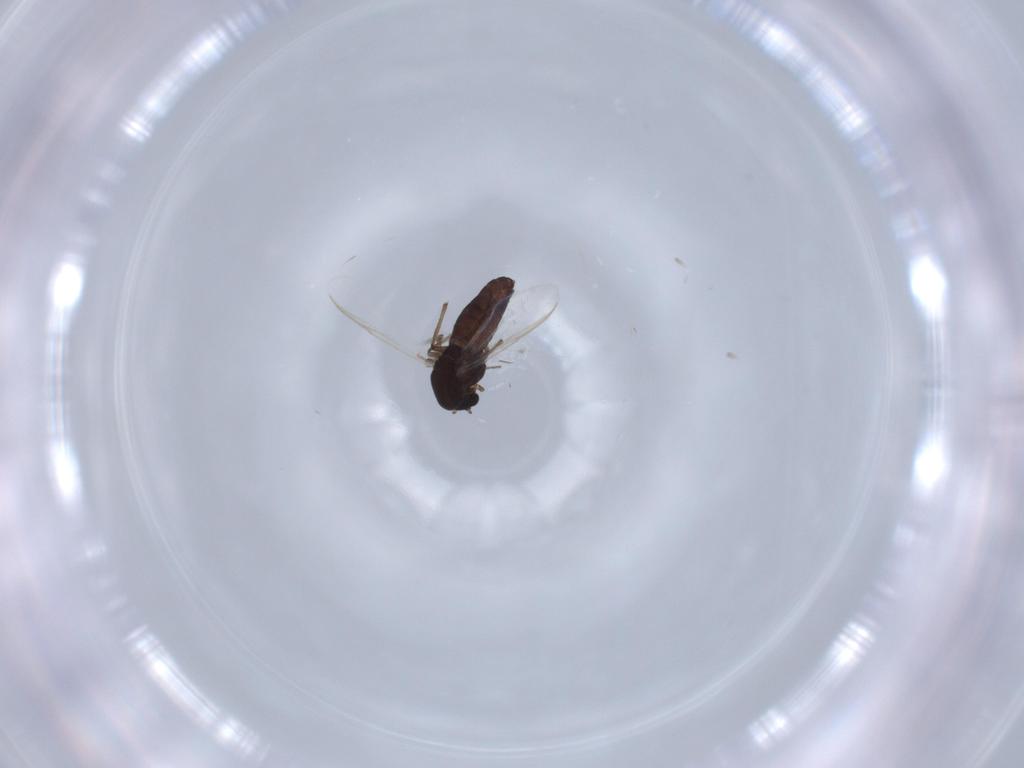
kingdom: Animalia
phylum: Arthropoda
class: Insecta
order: Diptera
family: Ceratopogonidae
